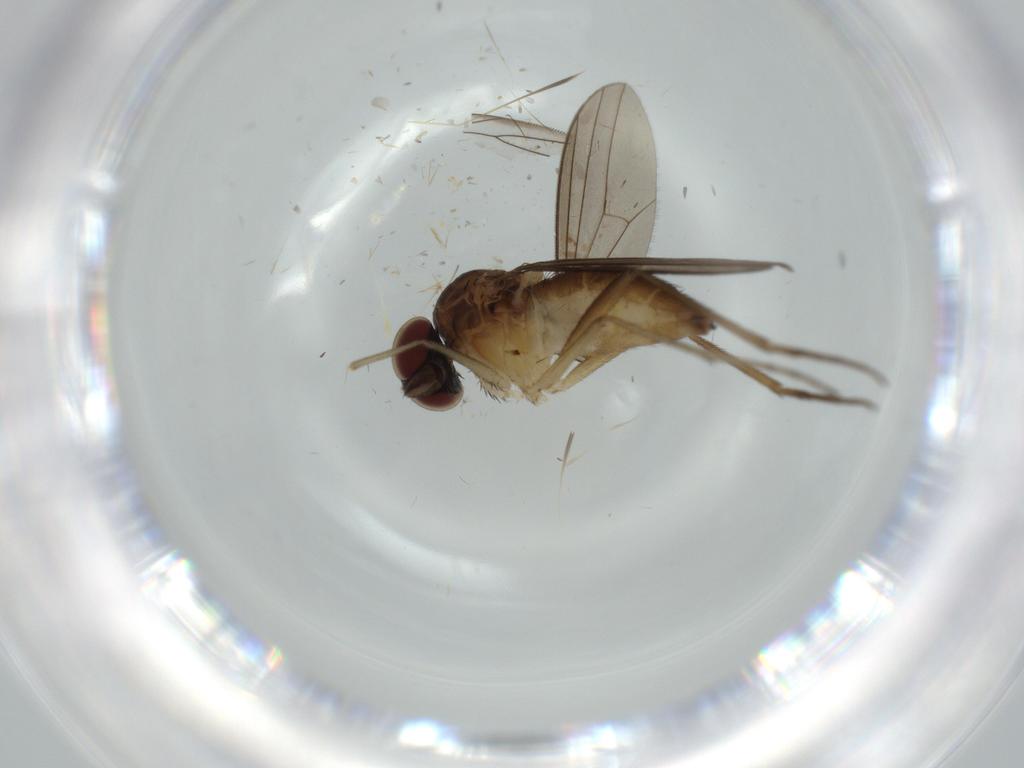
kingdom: Animalia
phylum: Arthropoda
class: Insecta
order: Diptera
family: Dolichopodidae
